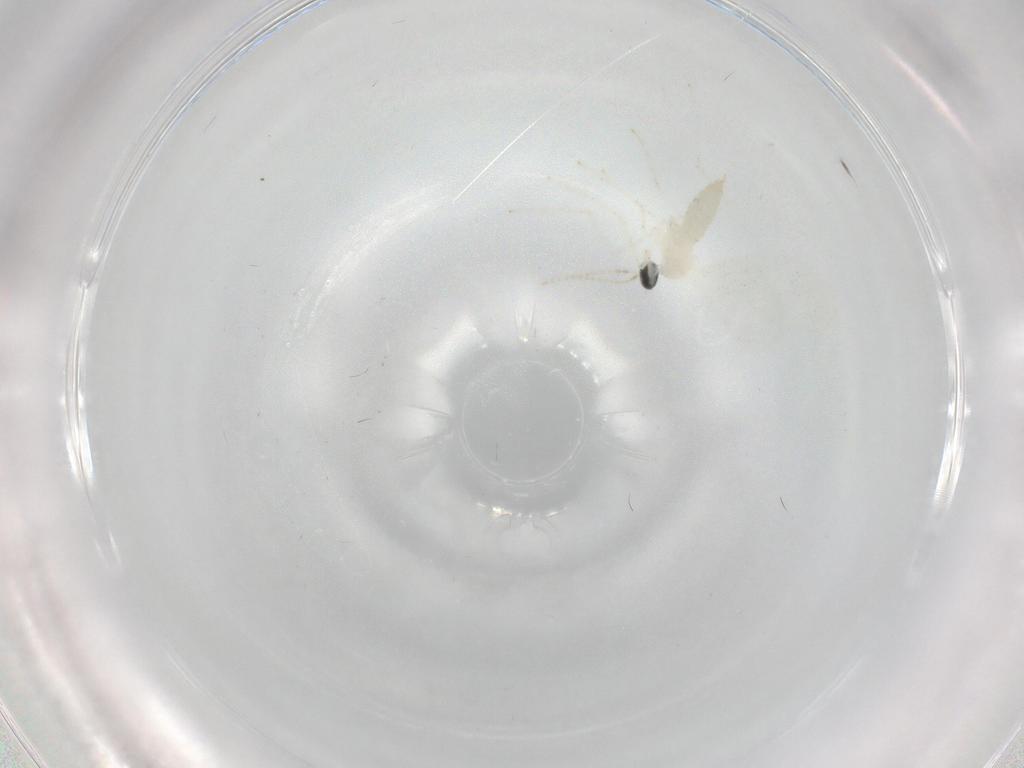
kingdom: Animalia
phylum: Arthropoda
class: Insecta
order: Diptera
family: Cecidomyiidae
